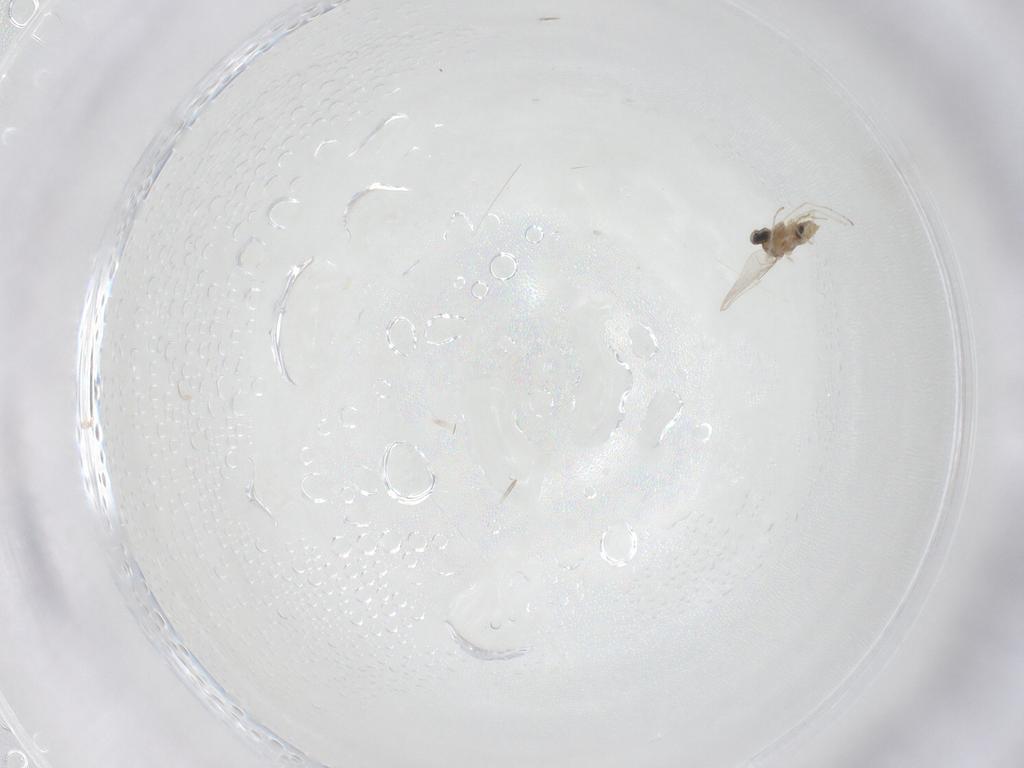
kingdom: Animalia
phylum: Arthropoda
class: Insecta
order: Diptera
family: Cecidomyiidae
